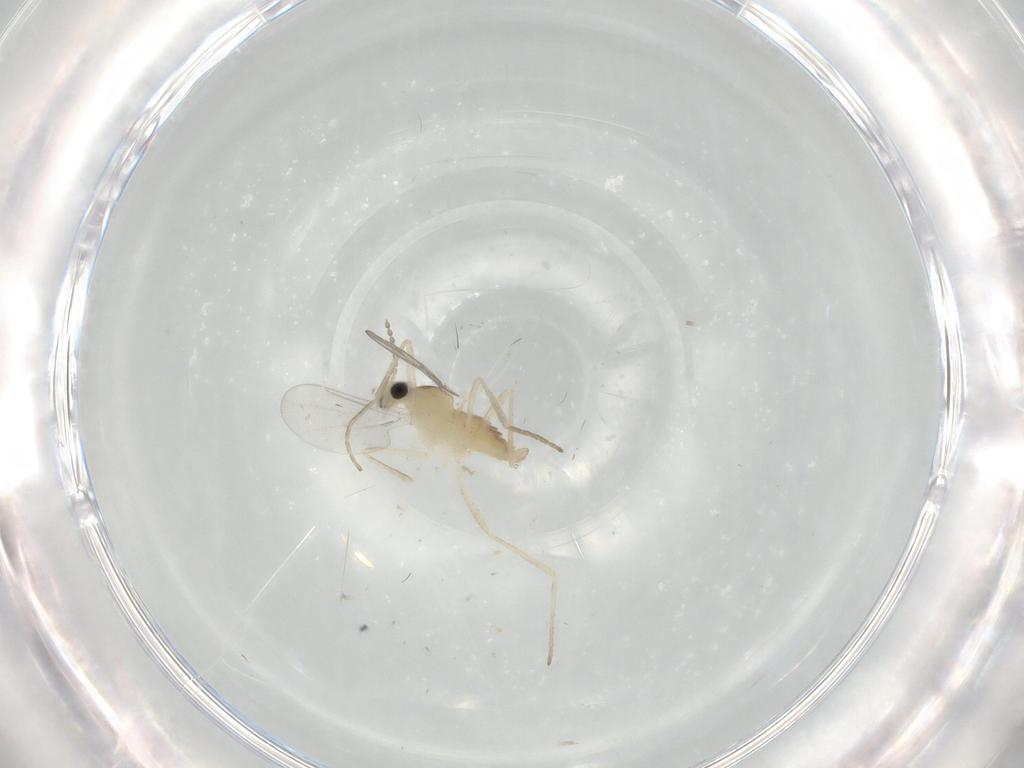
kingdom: Animalia
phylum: Arthropoda
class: Insecta
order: Diptera
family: Cecidomyiidae
